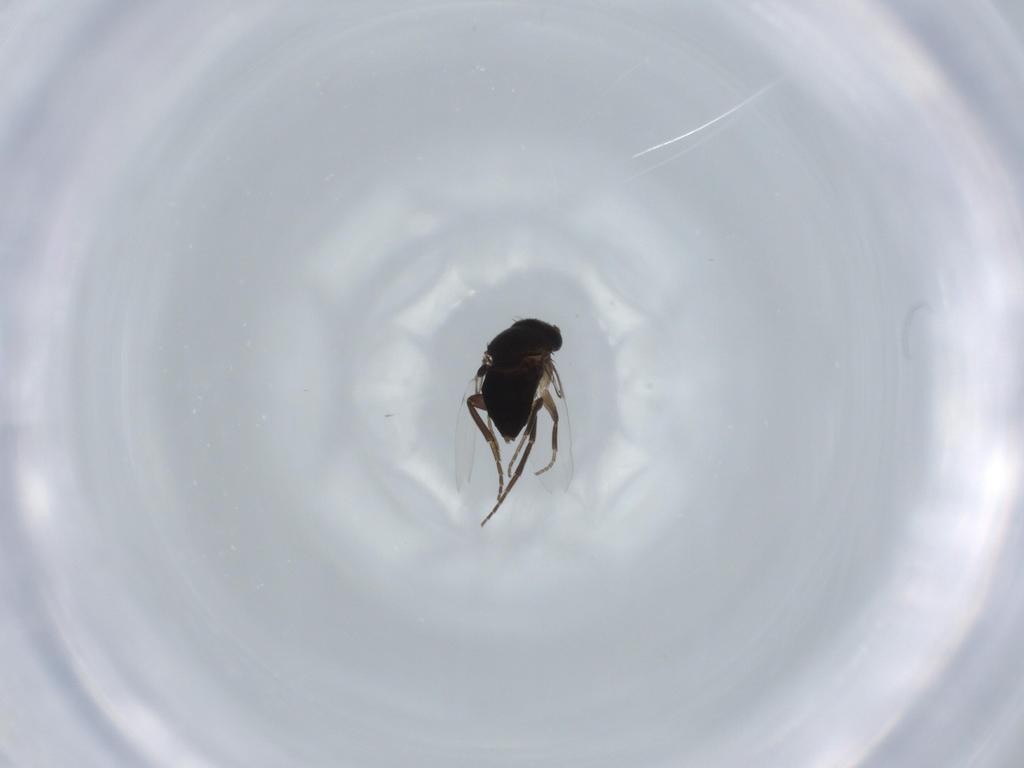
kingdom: Animalia
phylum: Arthropoda
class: Insecta
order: Diptera
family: Phoridae
